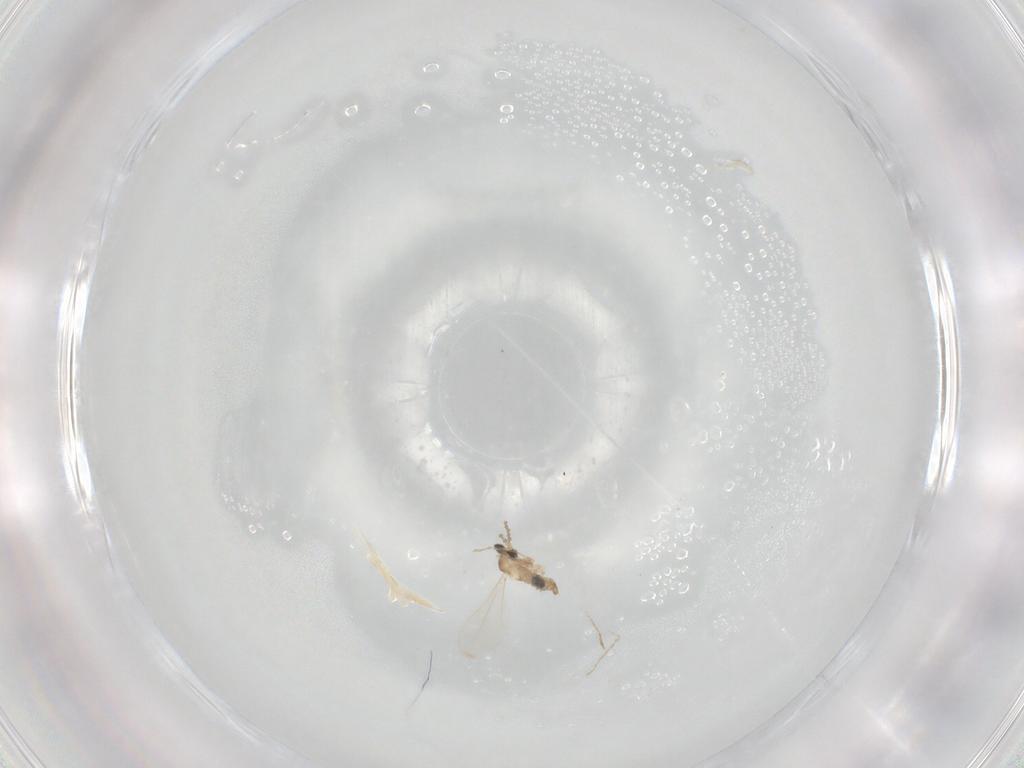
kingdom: Animalia
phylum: Arthropoda
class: Insecta
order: Diptera
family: Cecidomyiidae
